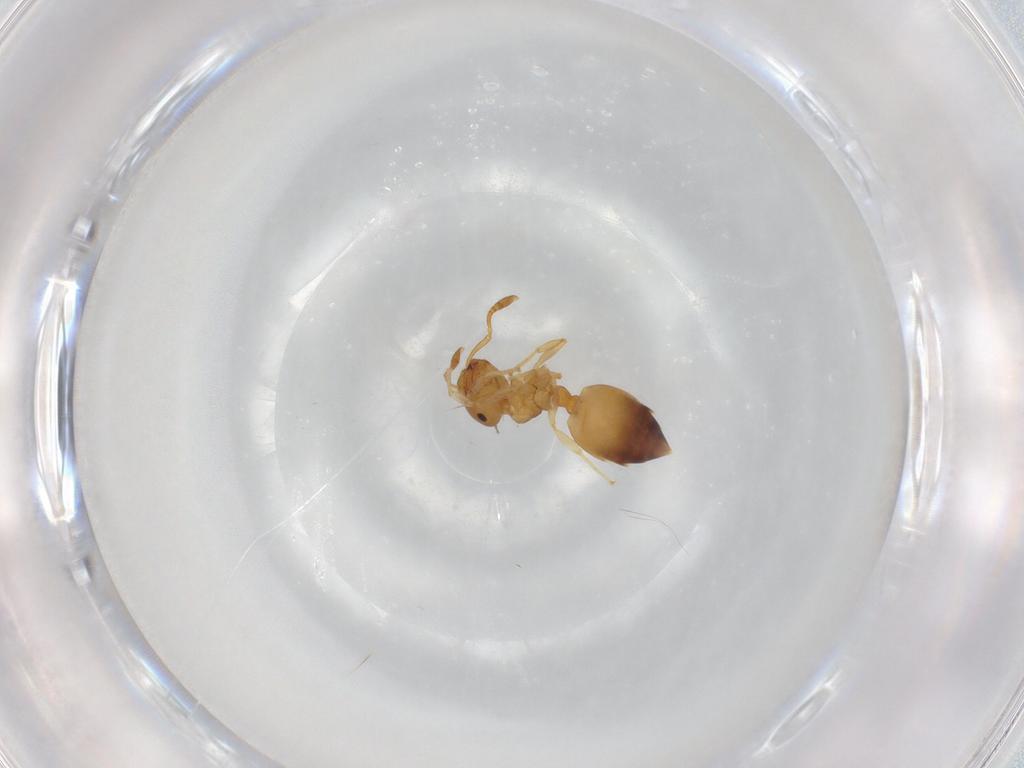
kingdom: Animalia
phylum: Arthropoda
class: Insecta
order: Hymenoptera
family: Formicidae
